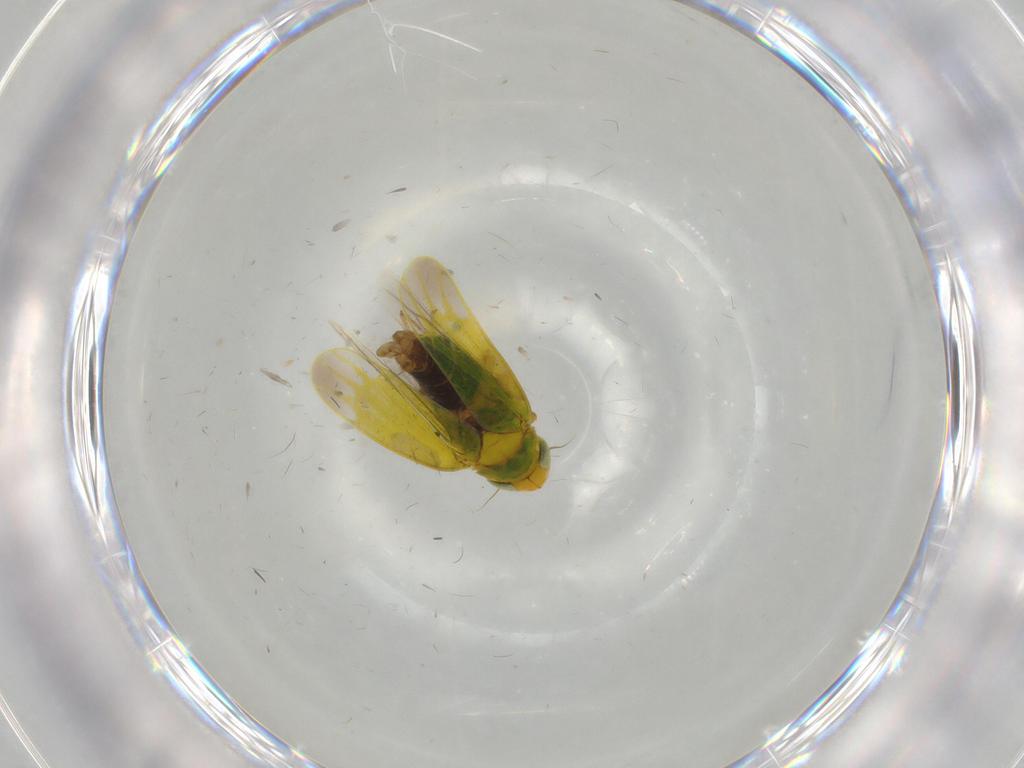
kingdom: Animalia
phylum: Arthropoda
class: Insecta
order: Hemiptera
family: Cicadellidae
